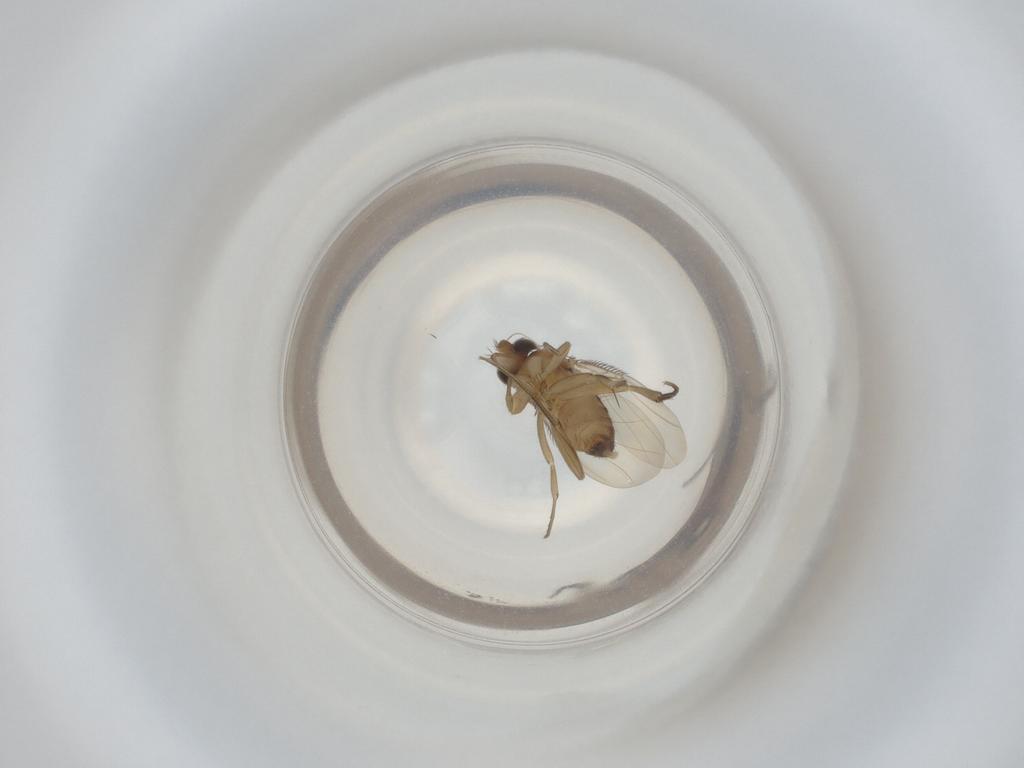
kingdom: Animalia
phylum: Arthropoda
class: Insecta
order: Diptera
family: Phoridae
